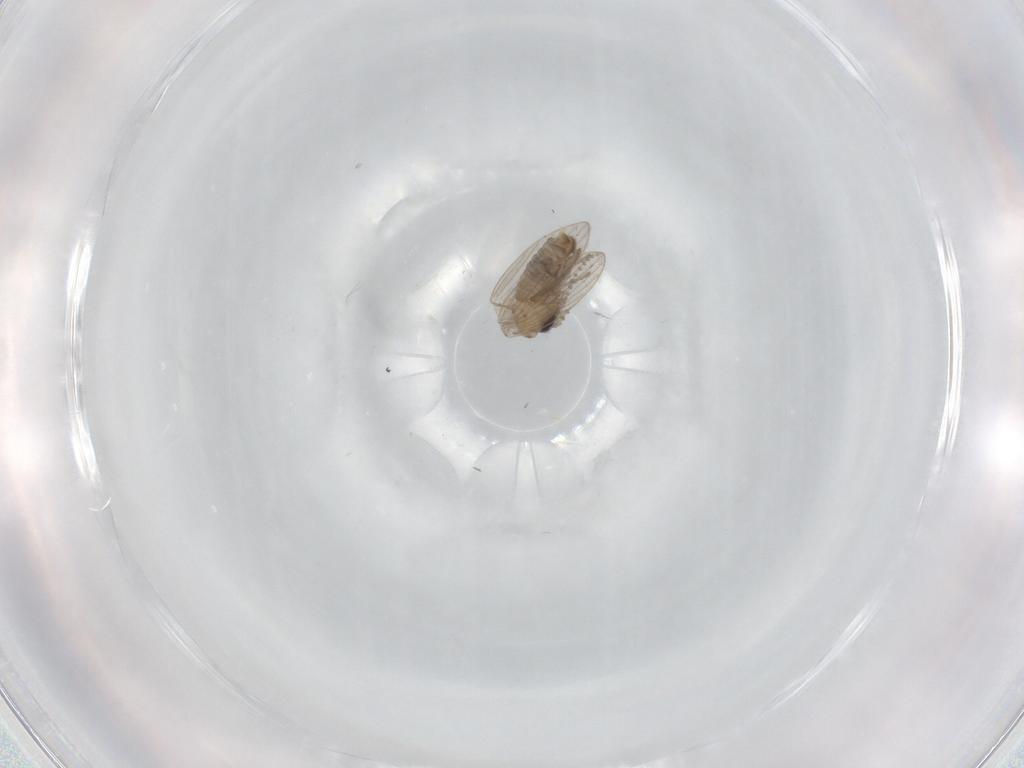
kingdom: Animalia
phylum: Arthropoda
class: Insecta
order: Diptera
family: Psychodidae
